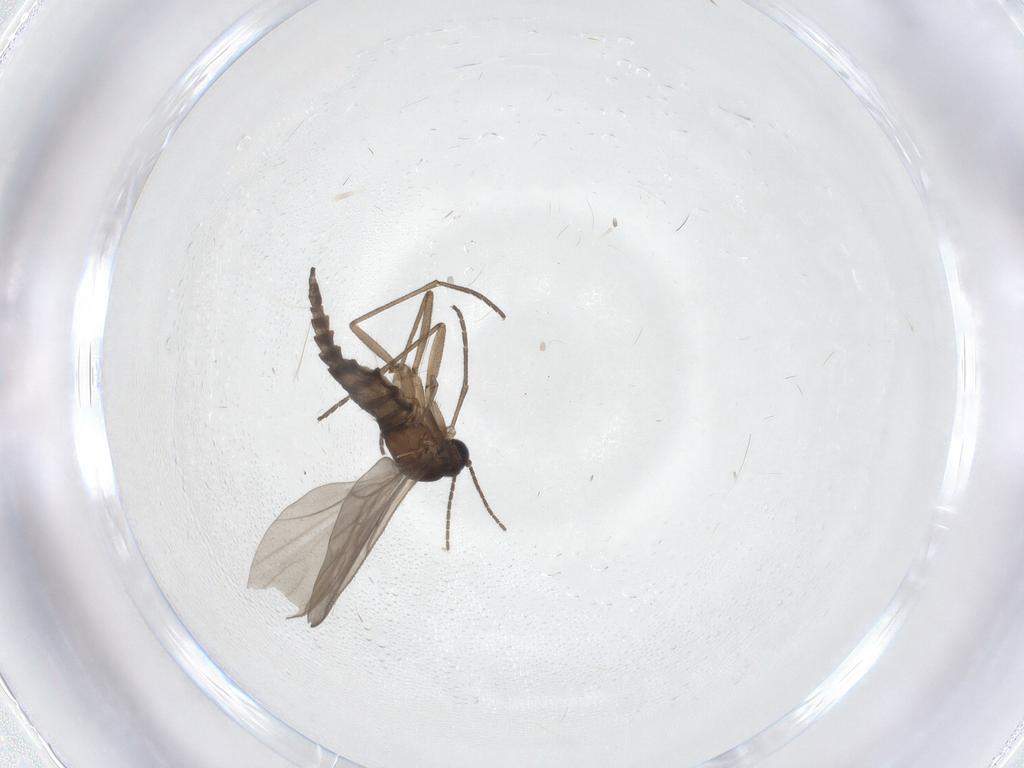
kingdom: Animalia
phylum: Arthropoda
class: Insecta
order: Diptera
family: Sciaridae
